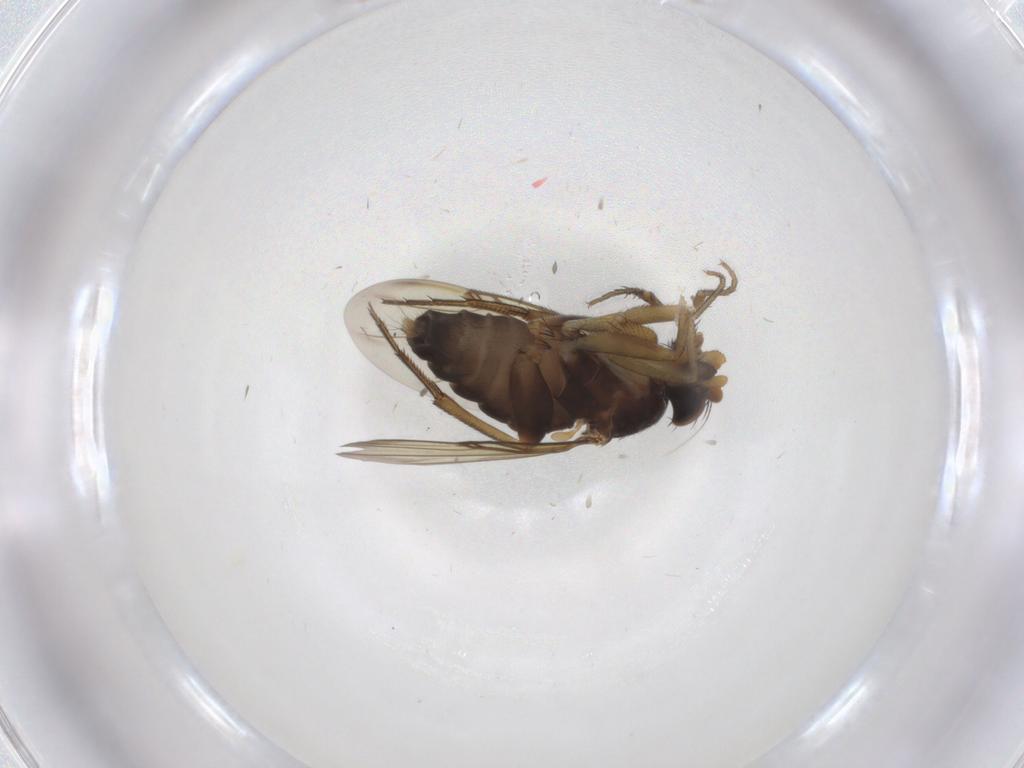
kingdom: Animalia
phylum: Arthropoda
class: Insecta
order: Diptera
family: Phoridae
